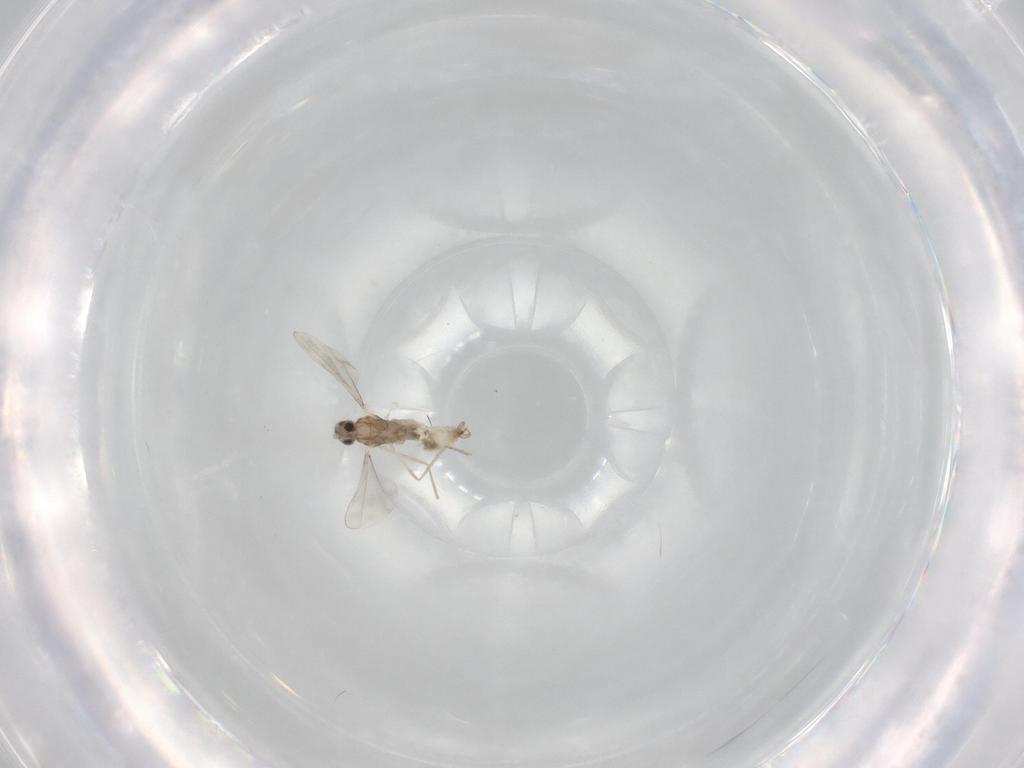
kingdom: Animalia
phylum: Arthropoda
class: Insecta
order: Diptera
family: Cecidomyiidae
